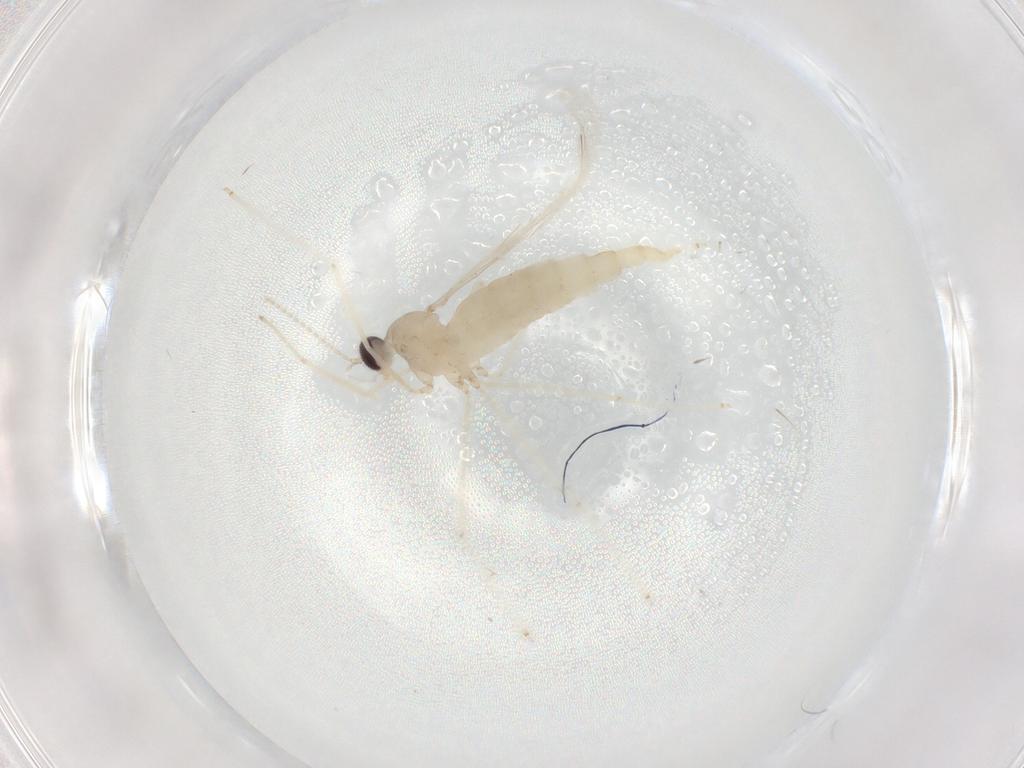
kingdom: Animalia
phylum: Arthropoda
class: Insecta
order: Diptera
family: Cecidomyiidae
